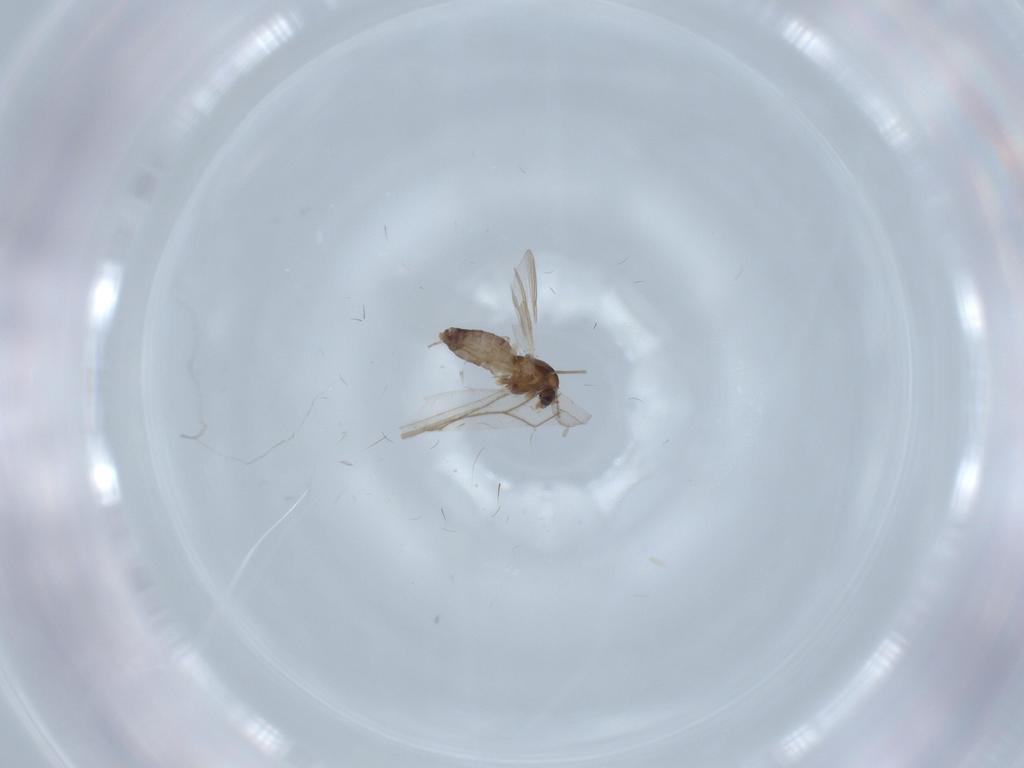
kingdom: Animalia
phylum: Arthropoda
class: Insecta
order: Diptera
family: Chironomidae
